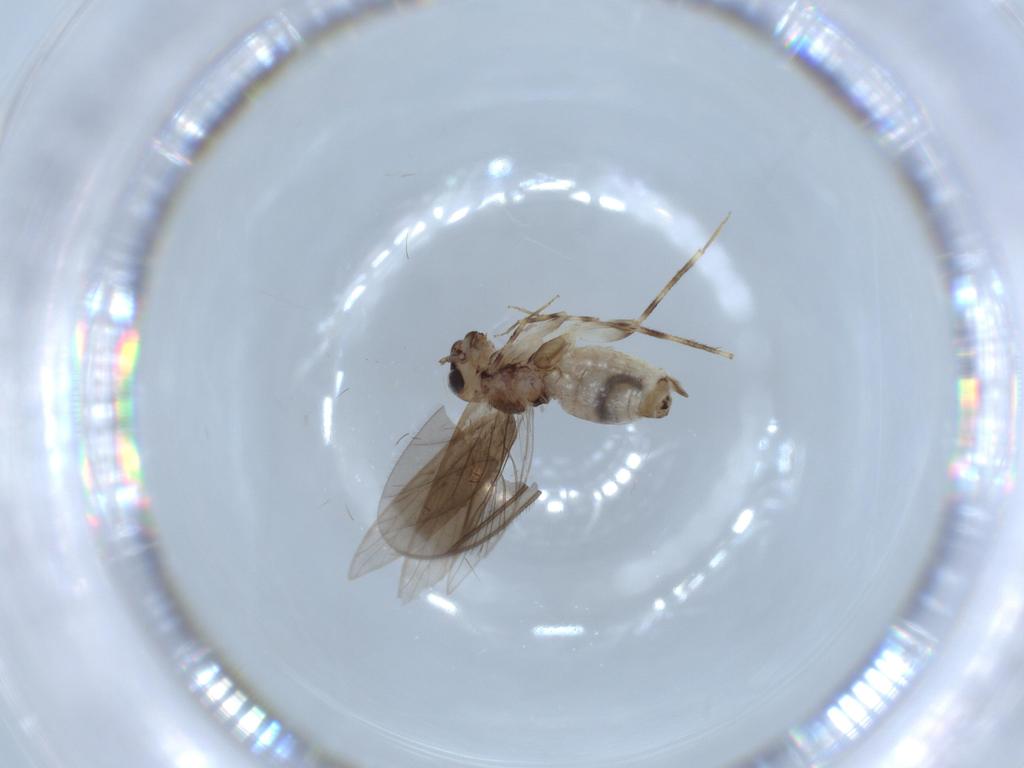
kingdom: Animalia
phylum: Arthropoda
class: Insecta
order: Psocodea
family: Lepidopsocidae
